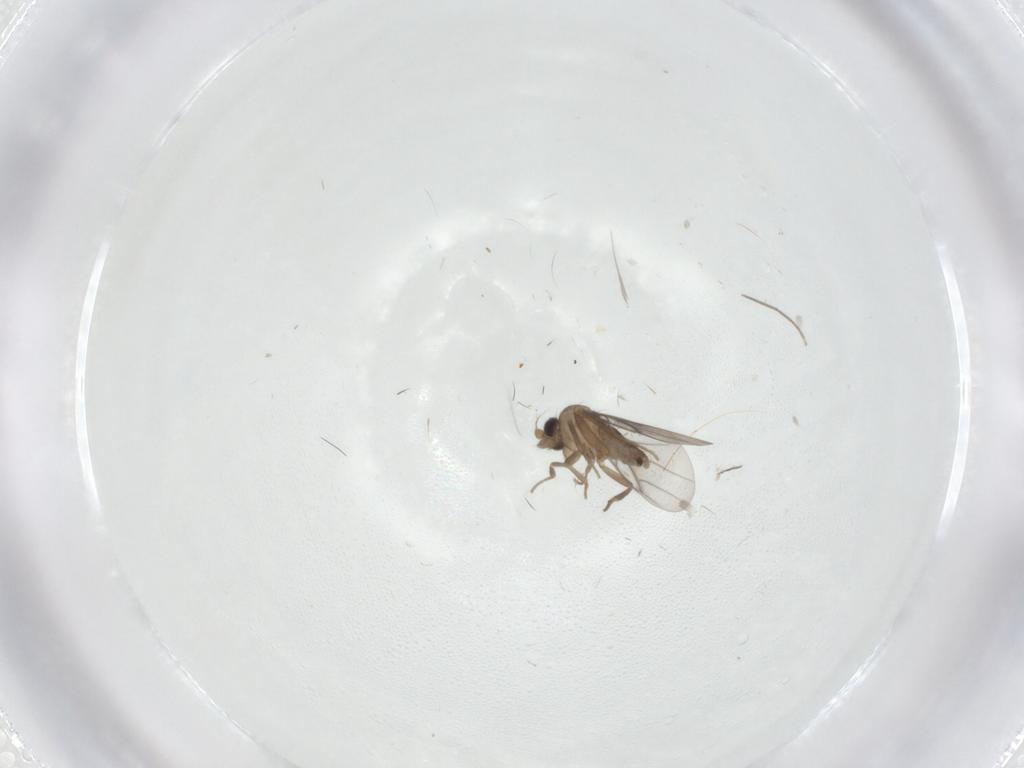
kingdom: Animalia
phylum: Arthropoda
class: Insecta
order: Diptera
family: Chironomidae
